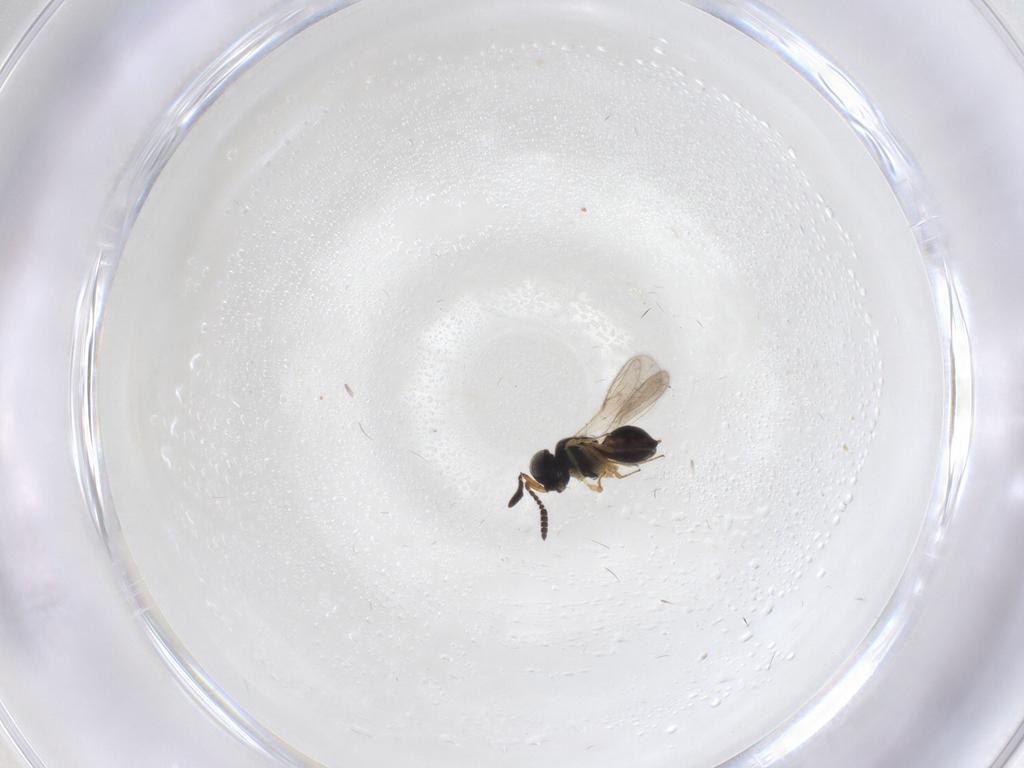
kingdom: Animalia
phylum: Arthropoda
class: Insecta
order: Hymenoptera
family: Scelionidae
